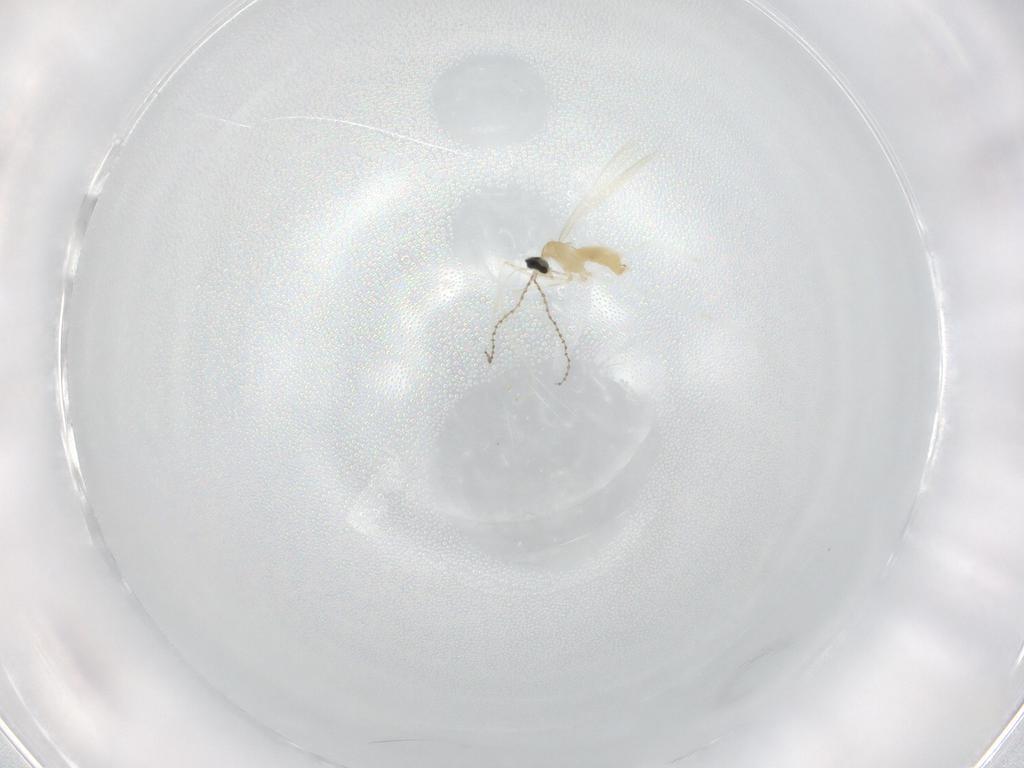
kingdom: Animalia
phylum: Arthropoda
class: Insecta
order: Diptera
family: Cecidomyiidae
